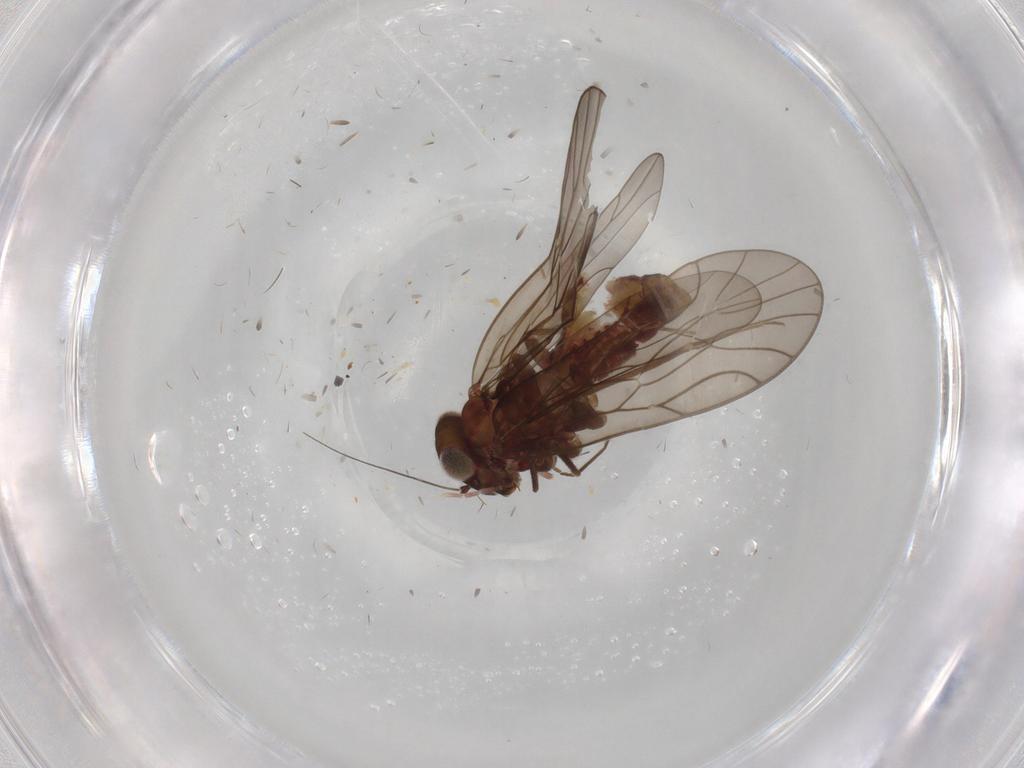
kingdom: Animalia
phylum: Arthropoda
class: Insecta
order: Psocodea
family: Philotarsidae
